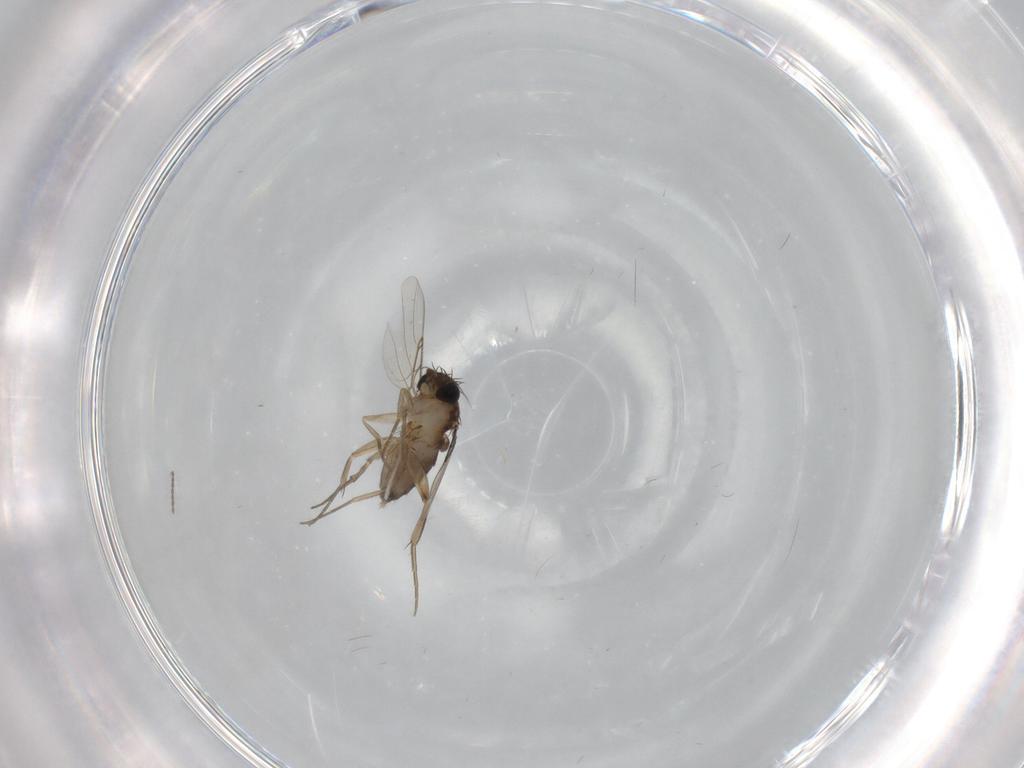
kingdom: Animalia
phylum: Arthropoda
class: Insecta
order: Diptera
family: Phoridae
